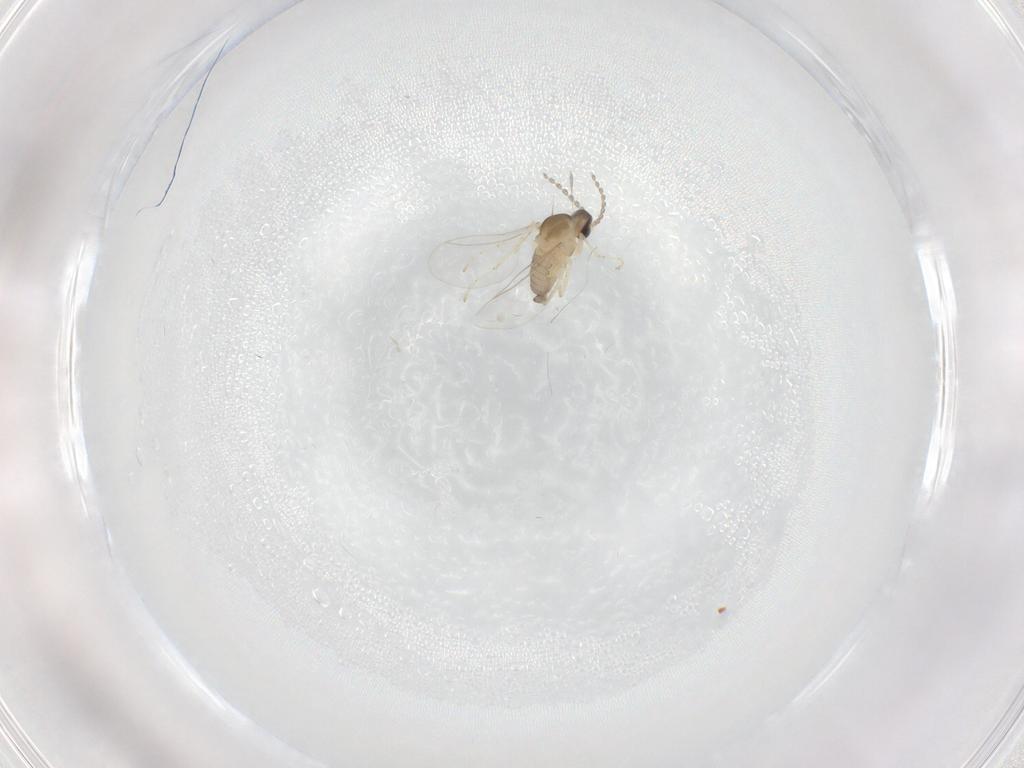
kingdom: Animalia
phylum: Arthropoda
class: Insecta
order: Diptera
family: Cecidomyiidae
